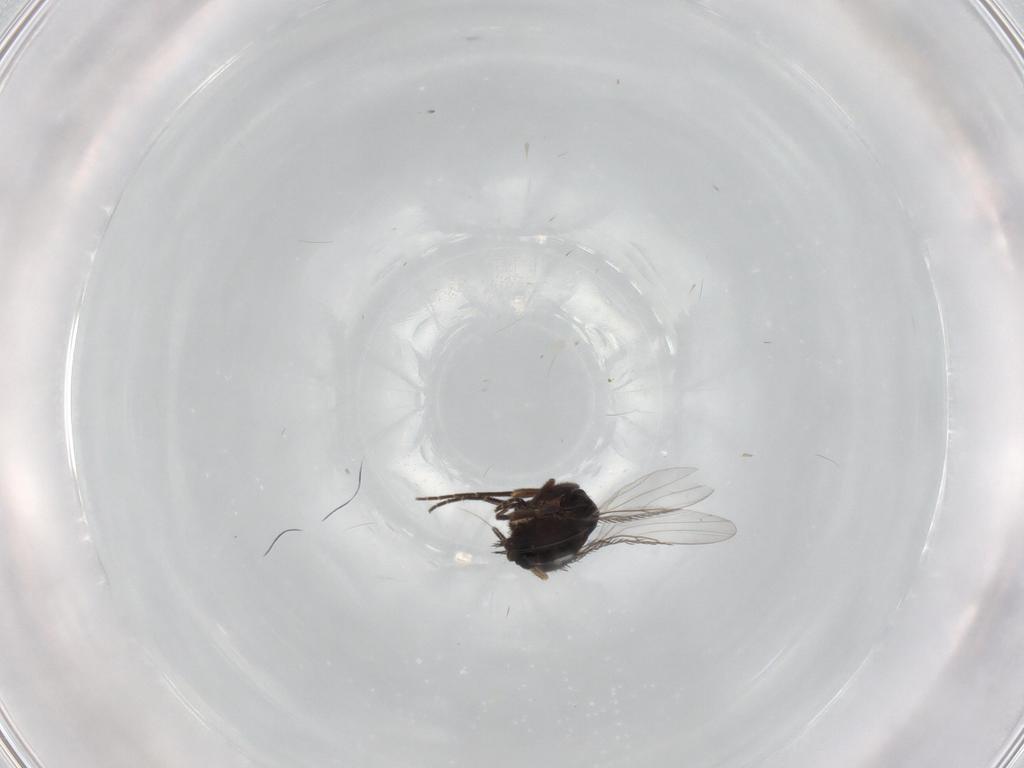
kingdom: Animalia
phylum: Arthropoda
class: Insecta
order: Diptera
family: Phoridae
